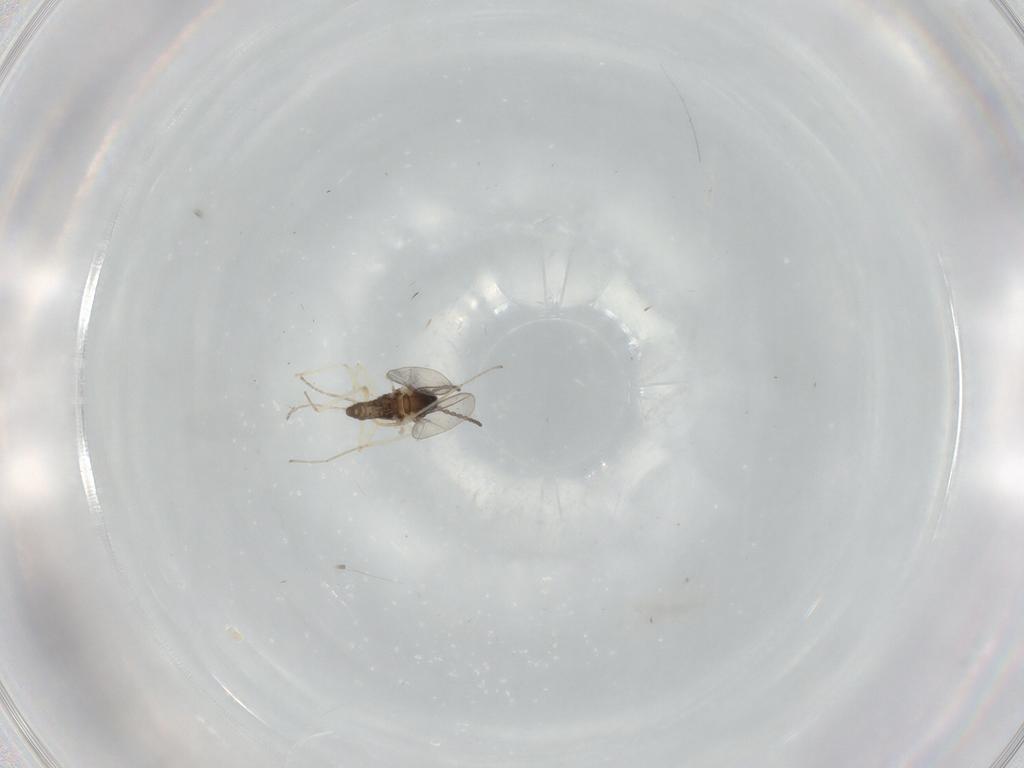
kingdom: Animalia
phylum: Arthropoda
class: Insecta
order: Diptera
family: Cecidomyiidae
